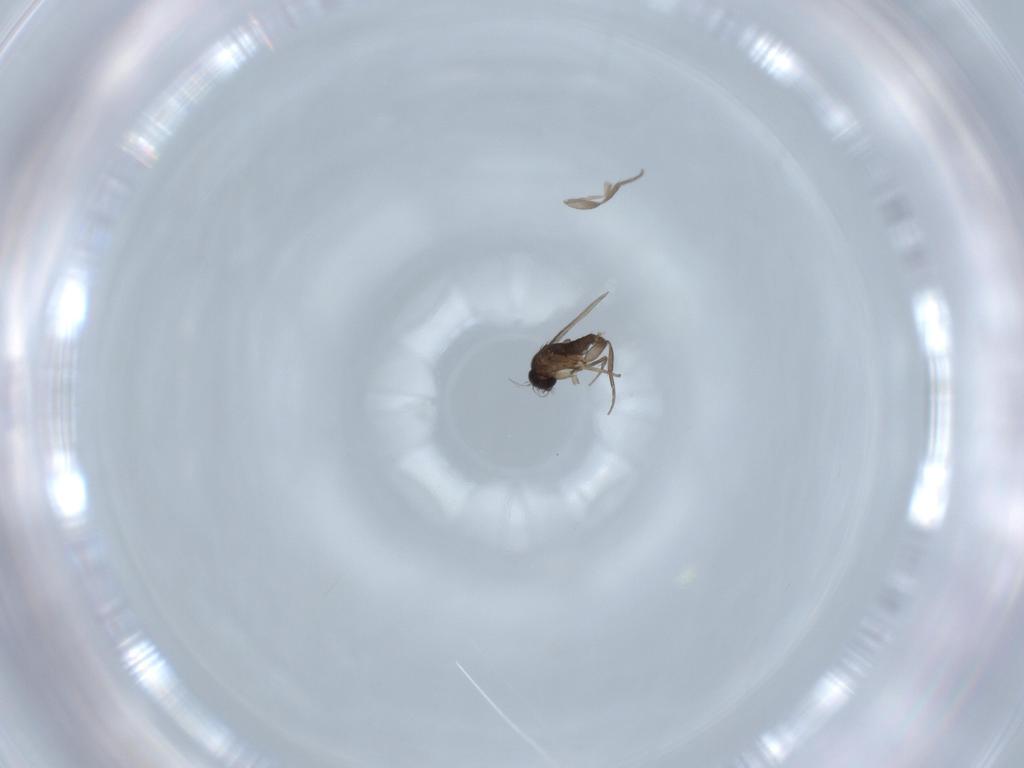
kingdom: Animalia
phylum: Arthropoda
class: Insecta
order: Diptera
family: Phoridae
